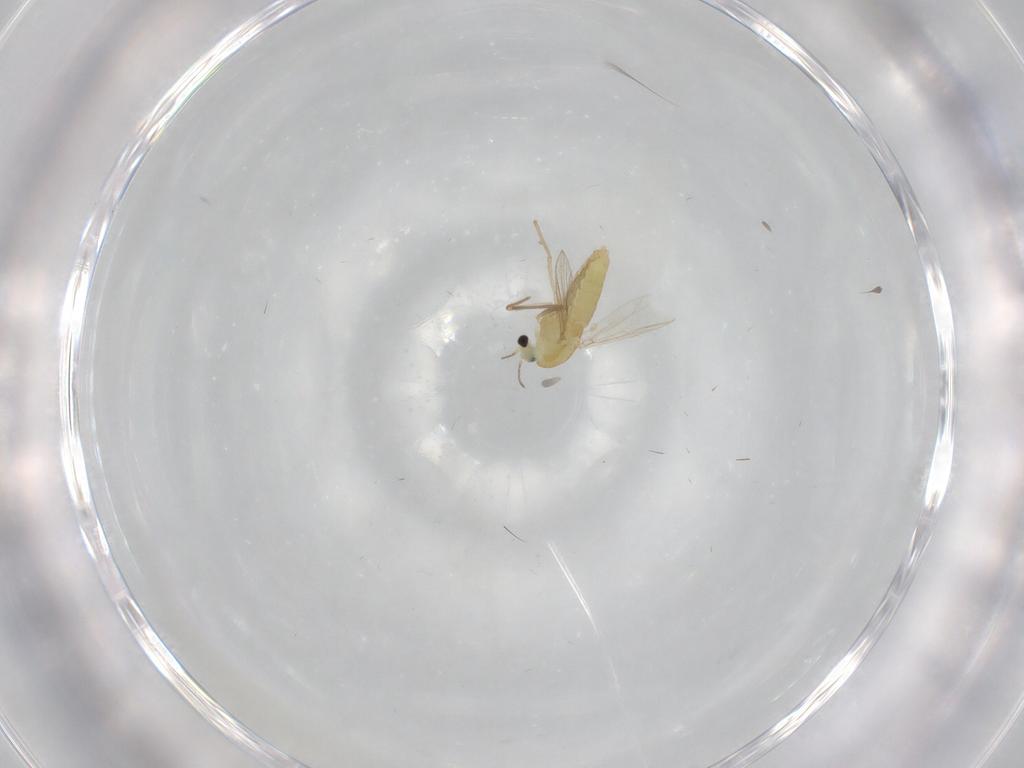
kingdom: Animalia
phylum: Arthropoda
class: Insecta
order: Diptera
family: Chironomidae
